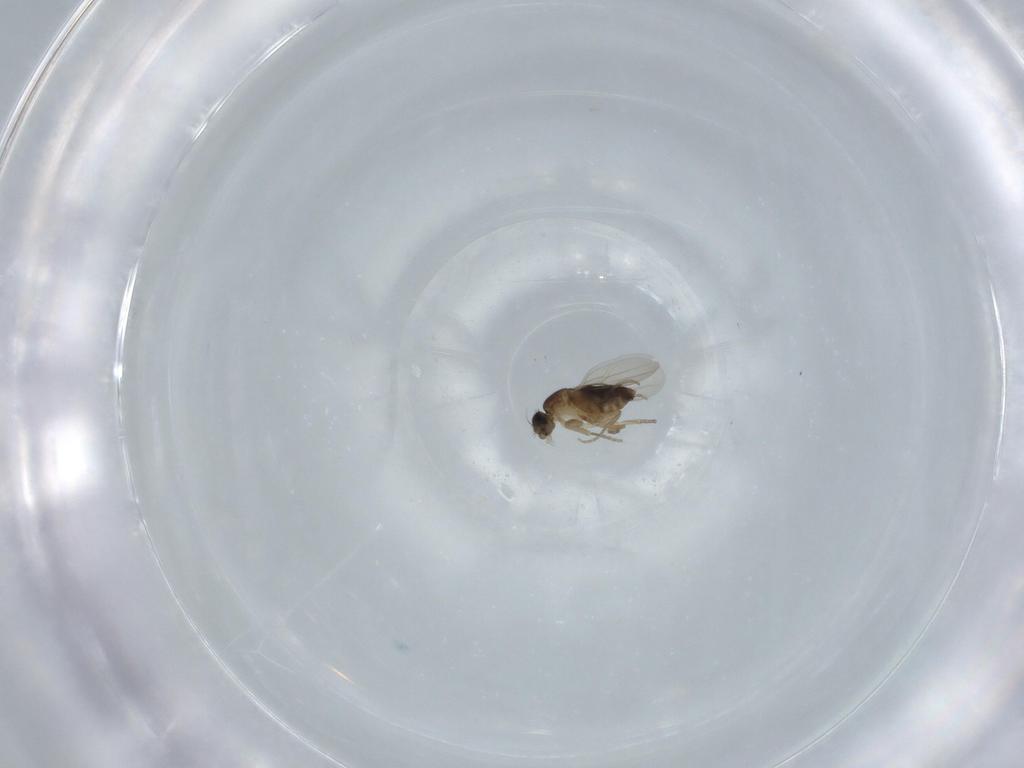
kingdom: Animalia
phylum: Arthropoda
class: Insecta
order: Diptera
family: Phoridae
